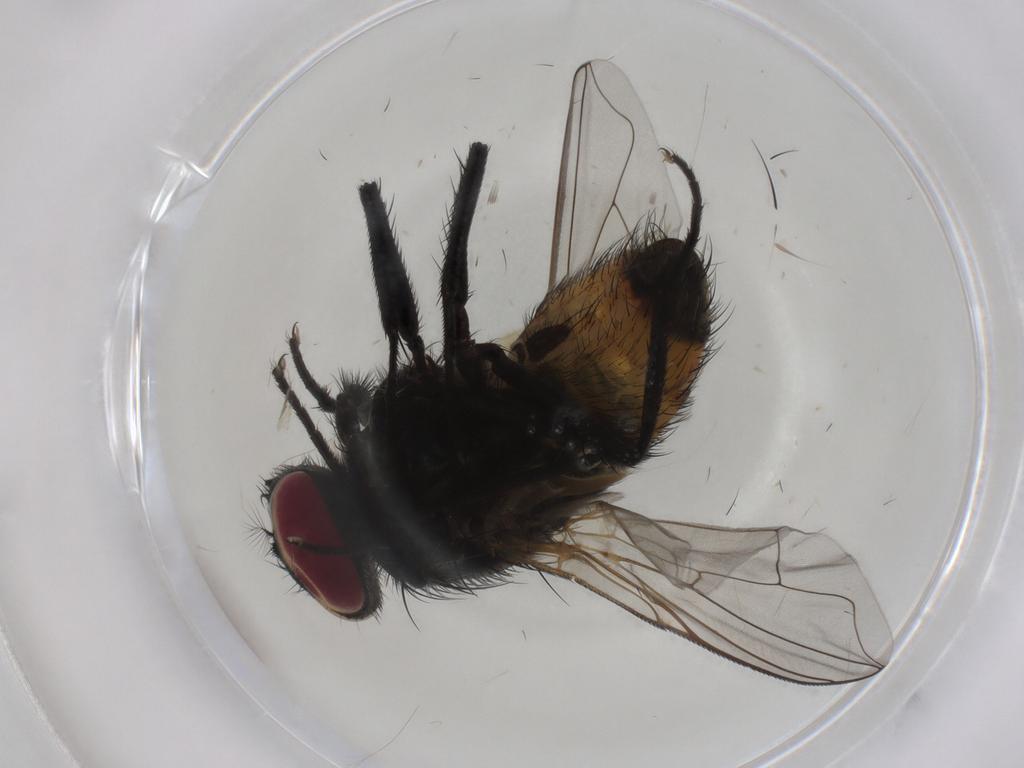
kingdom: Animalia
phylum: Arthropoda
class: Insecta
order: Diptera
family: Muscidae
